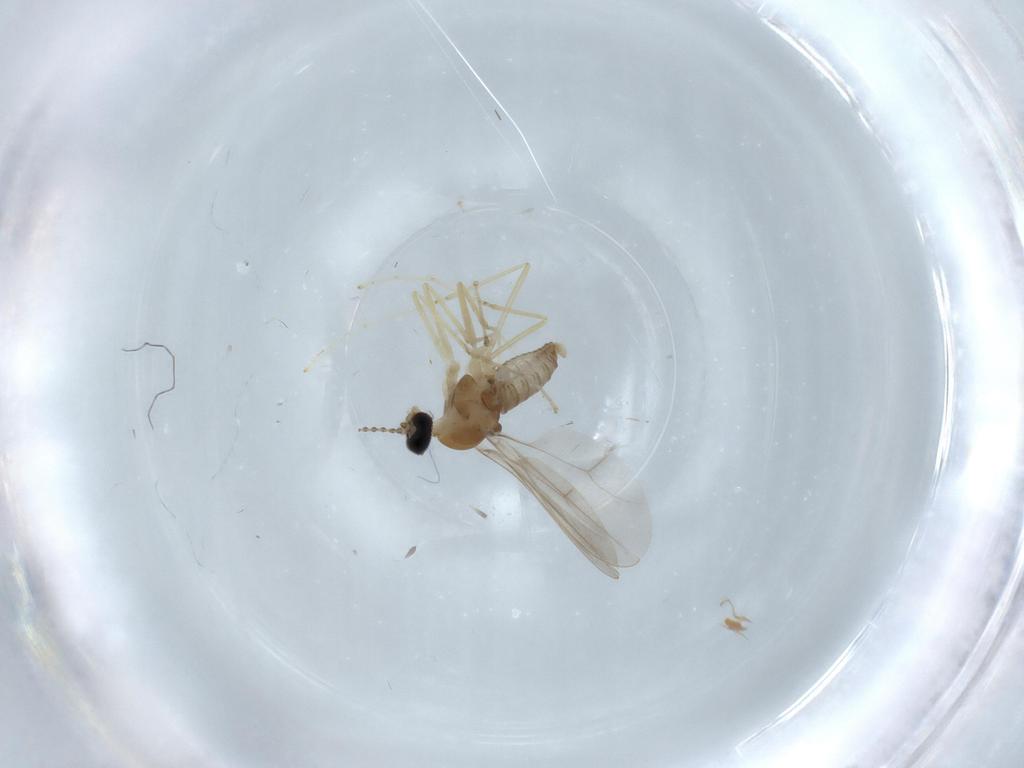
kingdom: Animalia
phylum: Arthropoda
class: Insecta
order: Diptera
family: Cecidomyiidae
